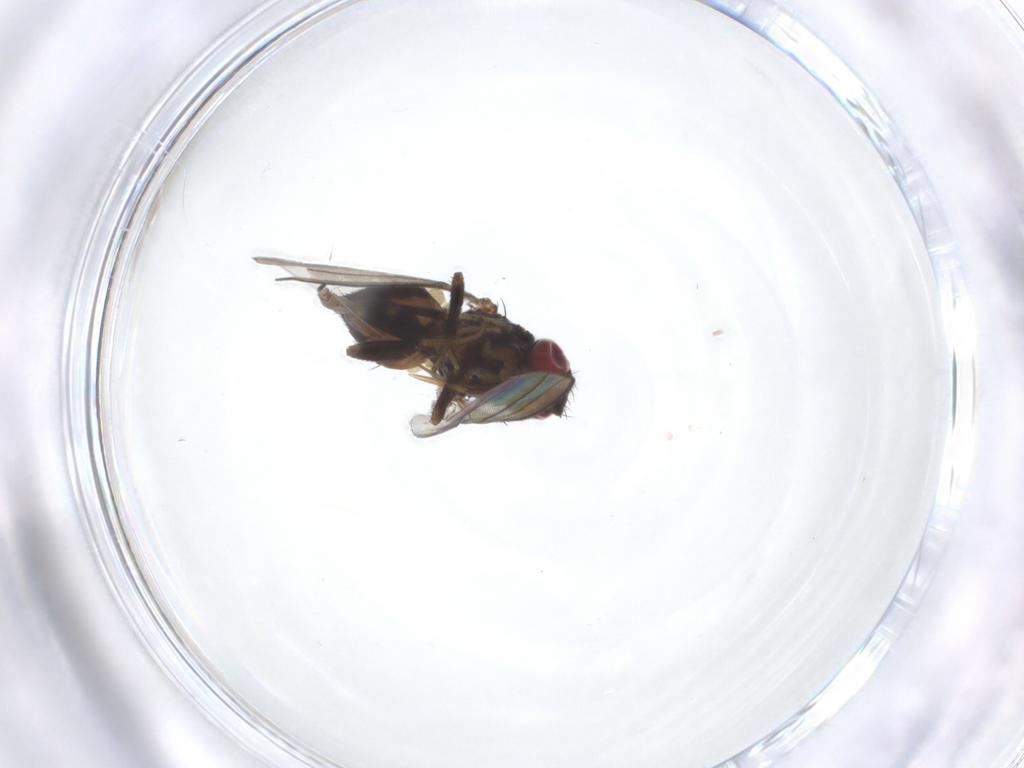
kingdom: Animalia
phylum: Arthropoda
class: Insecta
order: Diptera
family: Milichiidae
